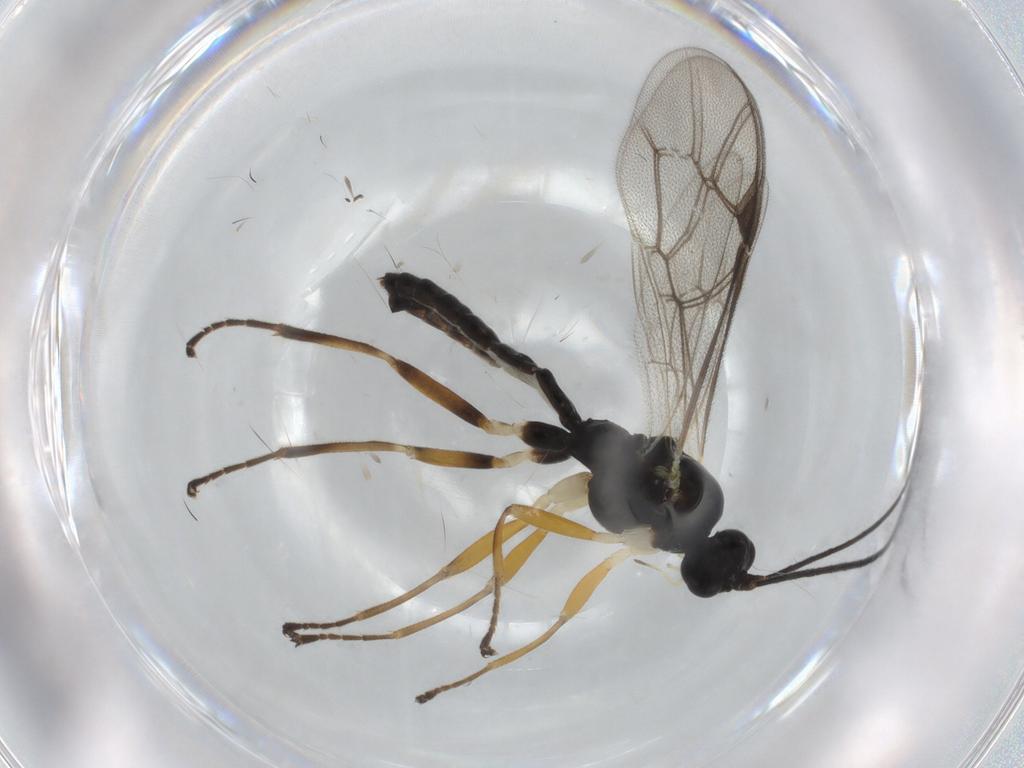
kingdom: Animalia
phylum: Arthropoda
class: Insecta
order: Hymenoptera
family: Ichneumonidae
